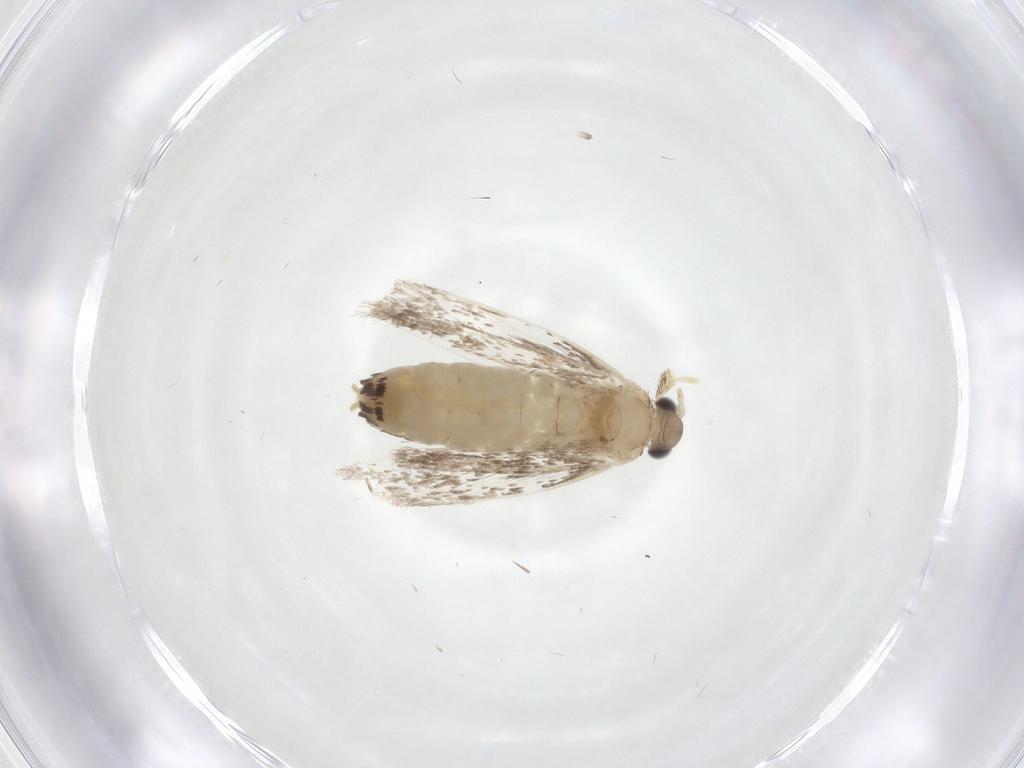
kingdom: Animalia
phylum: Arthropoda
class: Insecta
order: Lepidoptera
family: Dryadaulidae
